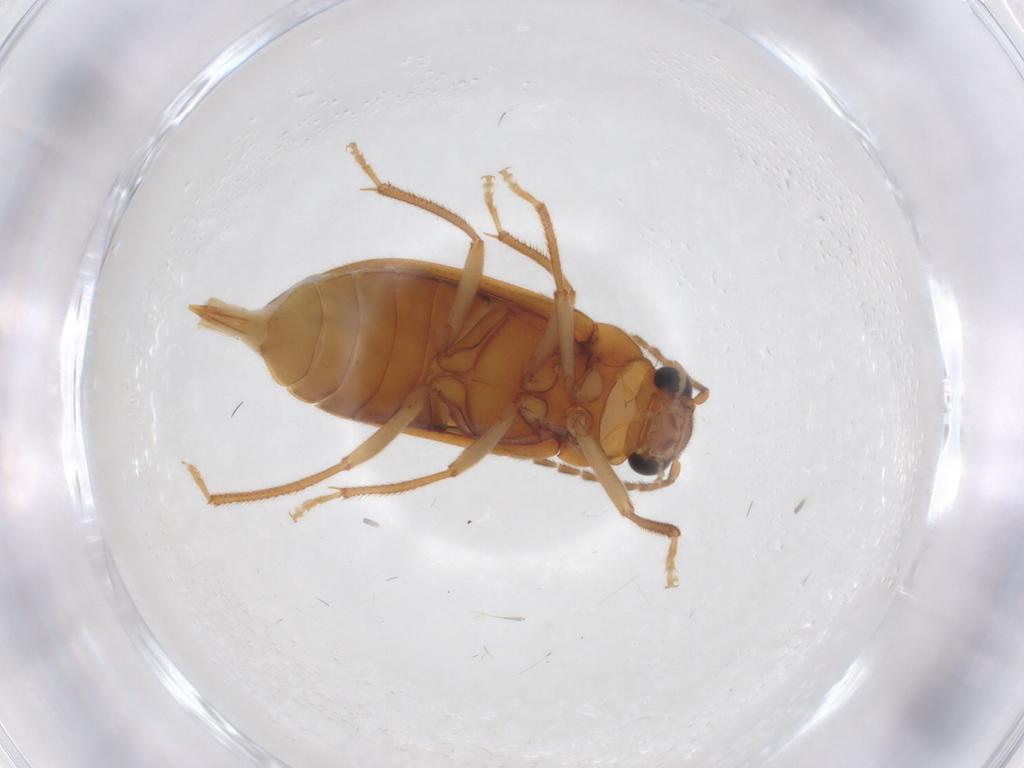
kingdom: Animalia
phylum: Arthropoda
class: Insecta
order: Coleoptera
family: Ptilodactylidae
